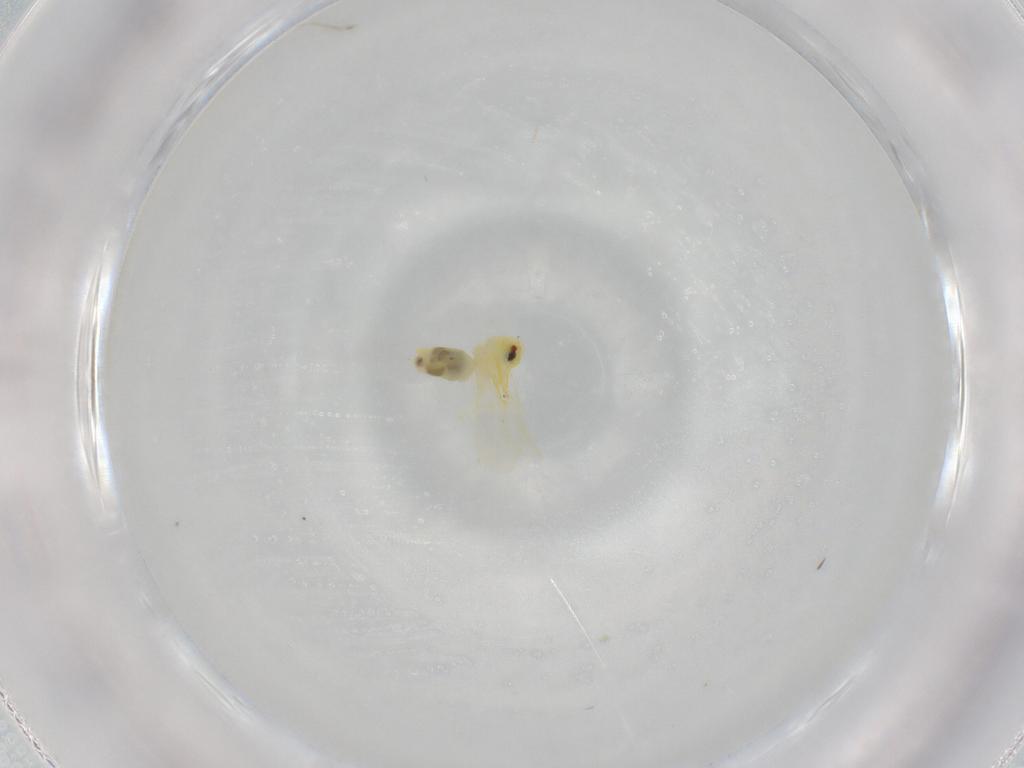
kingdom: Animalia
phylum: Arthropoda
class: Insecta
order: Hemiptera
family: Aleyrodidae
